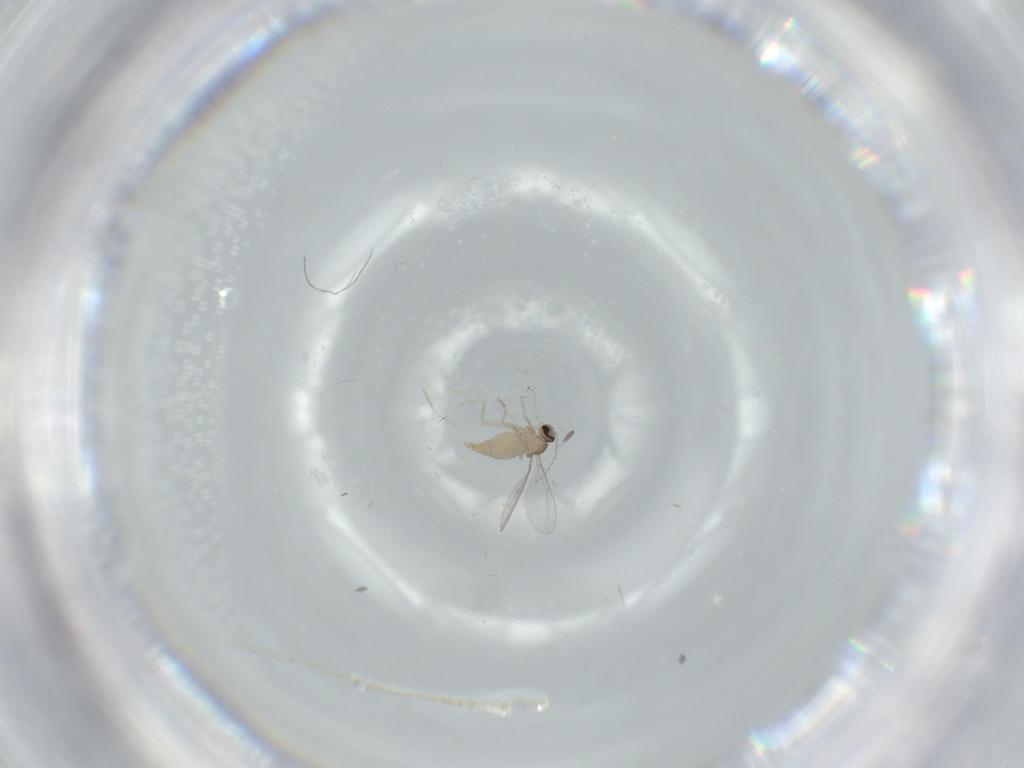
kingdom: Animalia
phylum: Arthropoda
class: Insecta
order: Diptera
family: Cecidomyiidae
